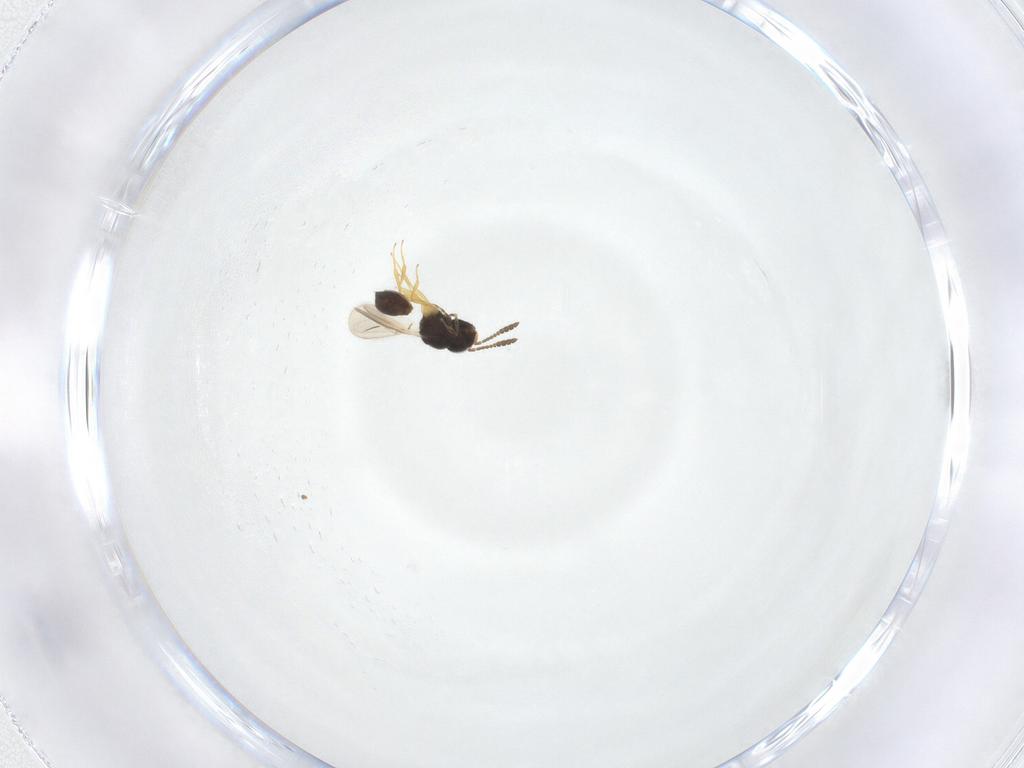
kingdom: Animalia
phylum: Arthropoda
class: Insecta
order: Hymenoptera
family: Scelionidae
